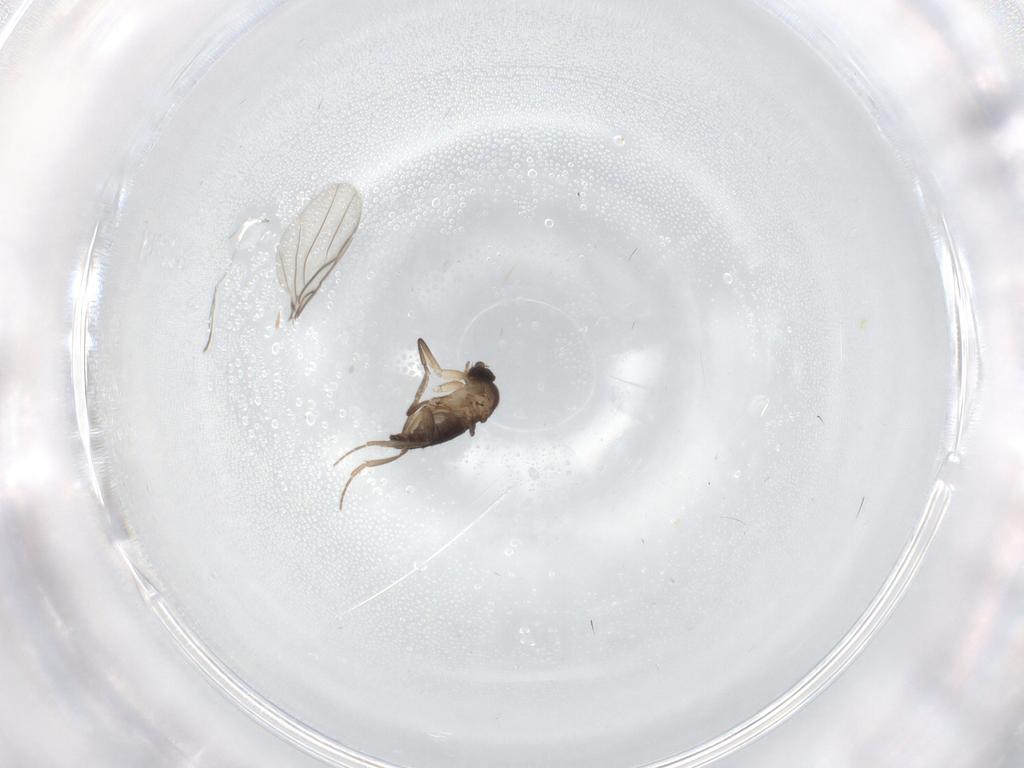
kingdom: Animalia
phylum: Arthropoda
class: Insecta
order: Diptera
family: Phoridae
